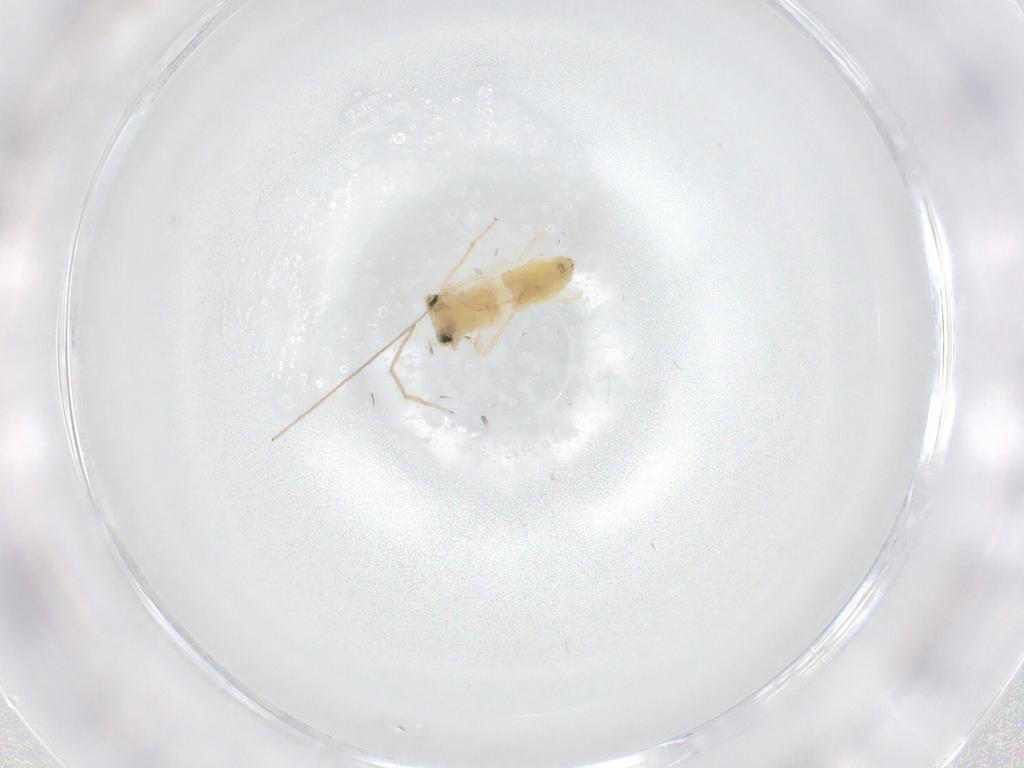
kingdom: Animalia
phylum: Arthropoda
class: Insecta
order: Psocodea
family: Lepidopsocidae
